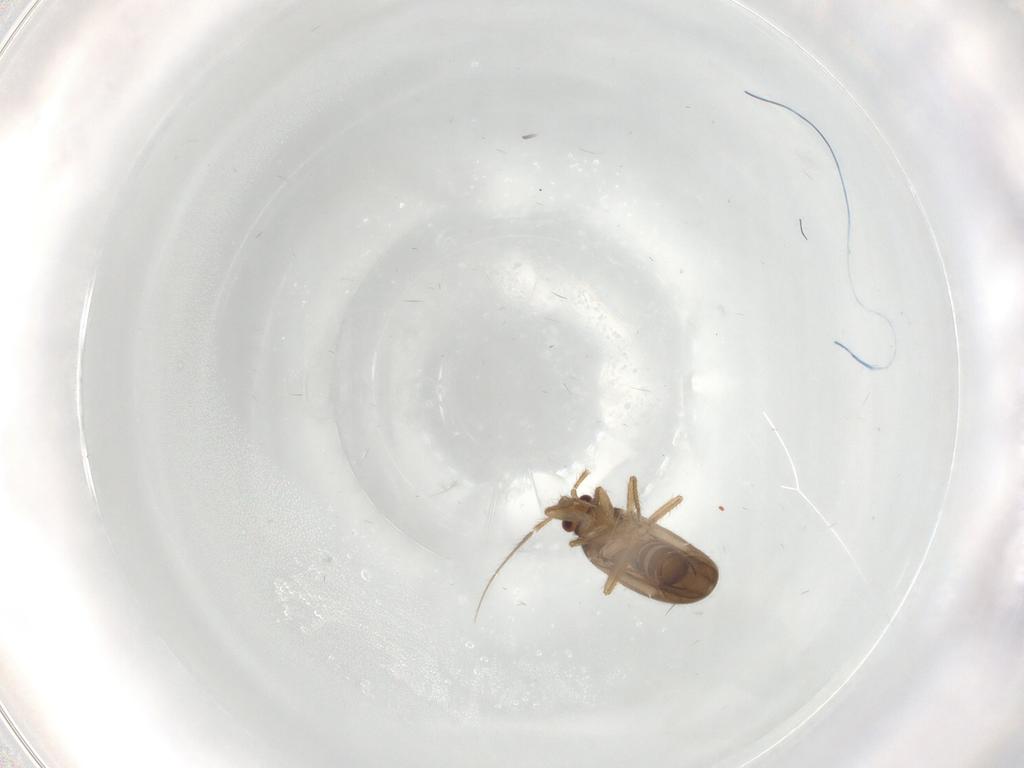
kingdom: Animalia
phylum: Arthropoda
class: Insecta
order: Hemiptera
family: Ceratocombidae
